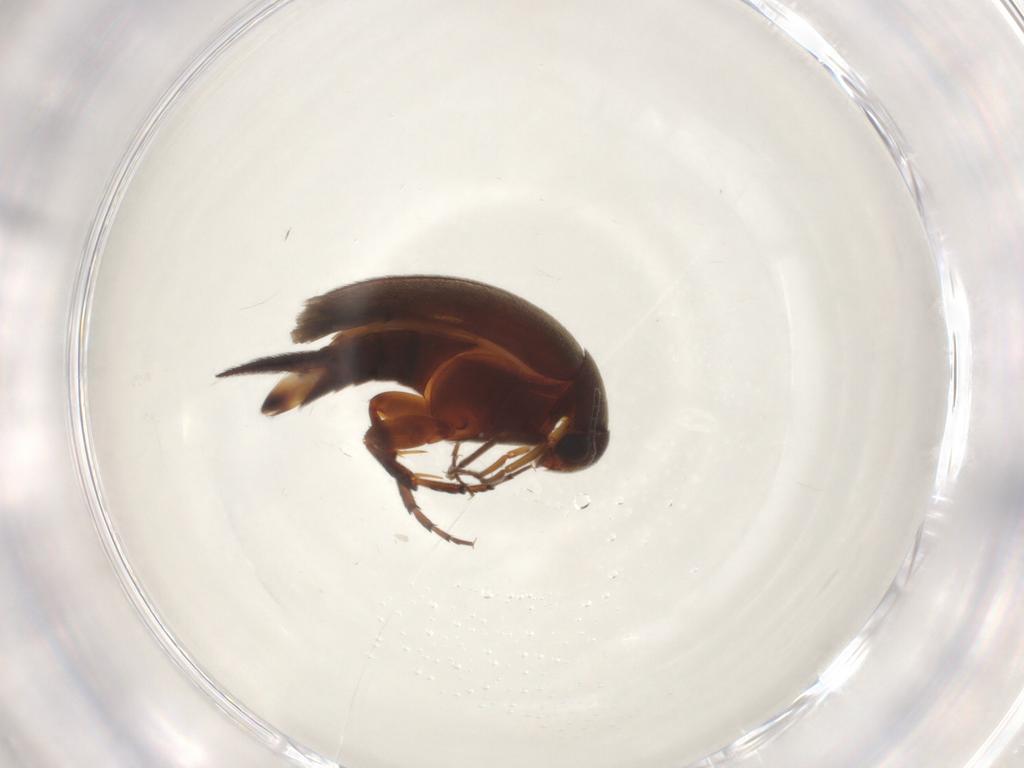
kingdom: Animalia
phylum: Arthropoda
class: Insecta
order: Coleoptera
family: Mordellidae
